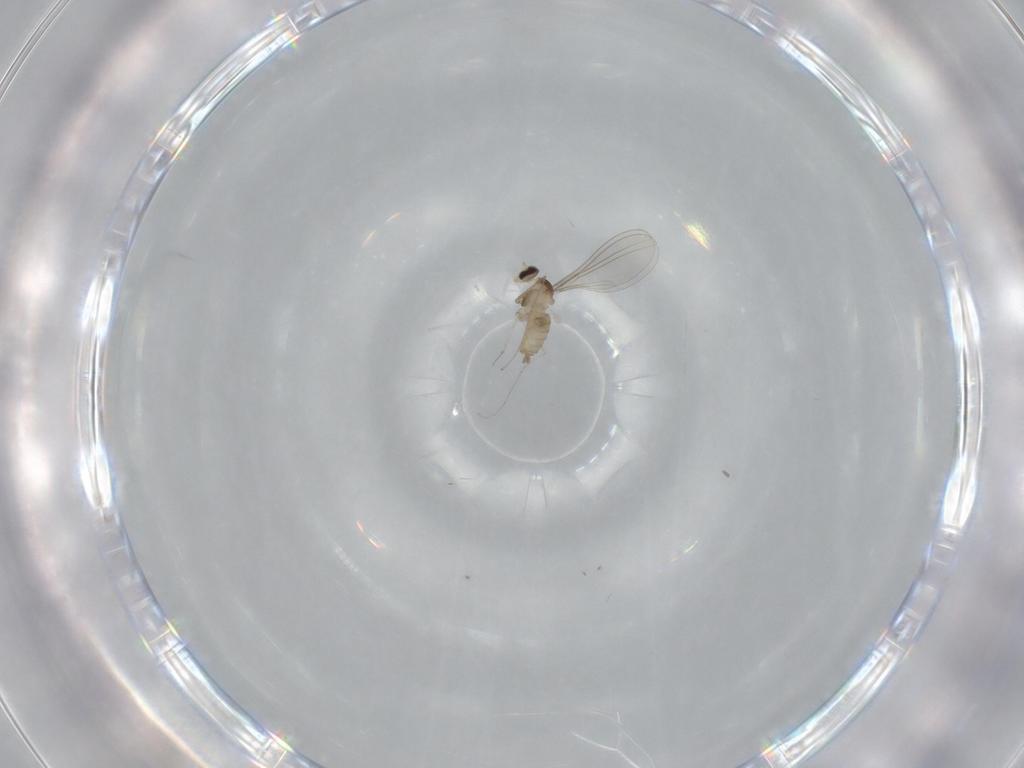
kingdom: Animalia
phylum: Arthropoda
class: Insecta
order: Diptera
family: Cecidomyiidae
